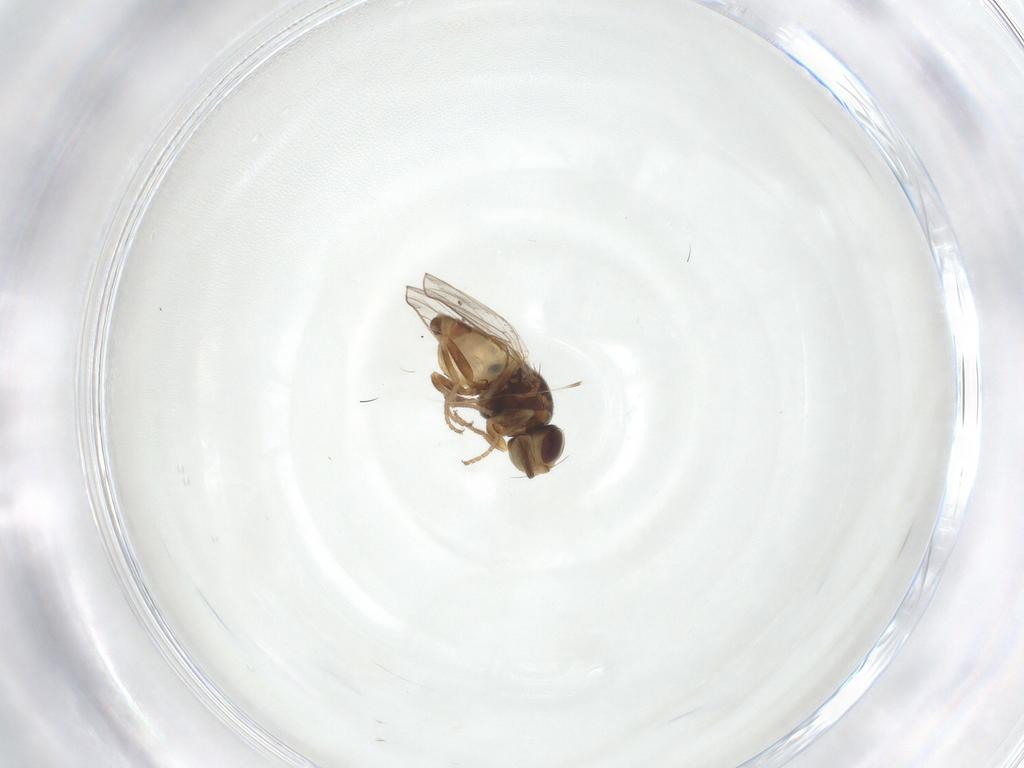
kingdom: Animalia
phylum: Arthropoda
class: Insecta
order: Diptera
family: Chloropidae
